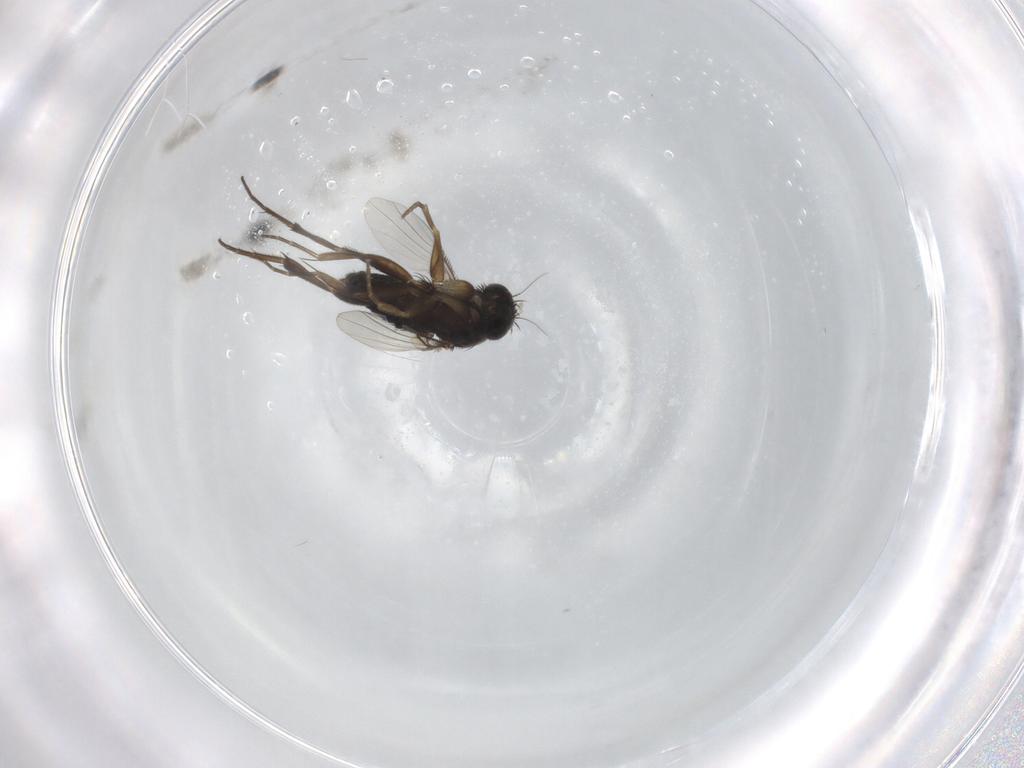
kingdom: Animalia
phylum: Arthropoda
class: Insecta
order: Diptera
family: Phoridae
